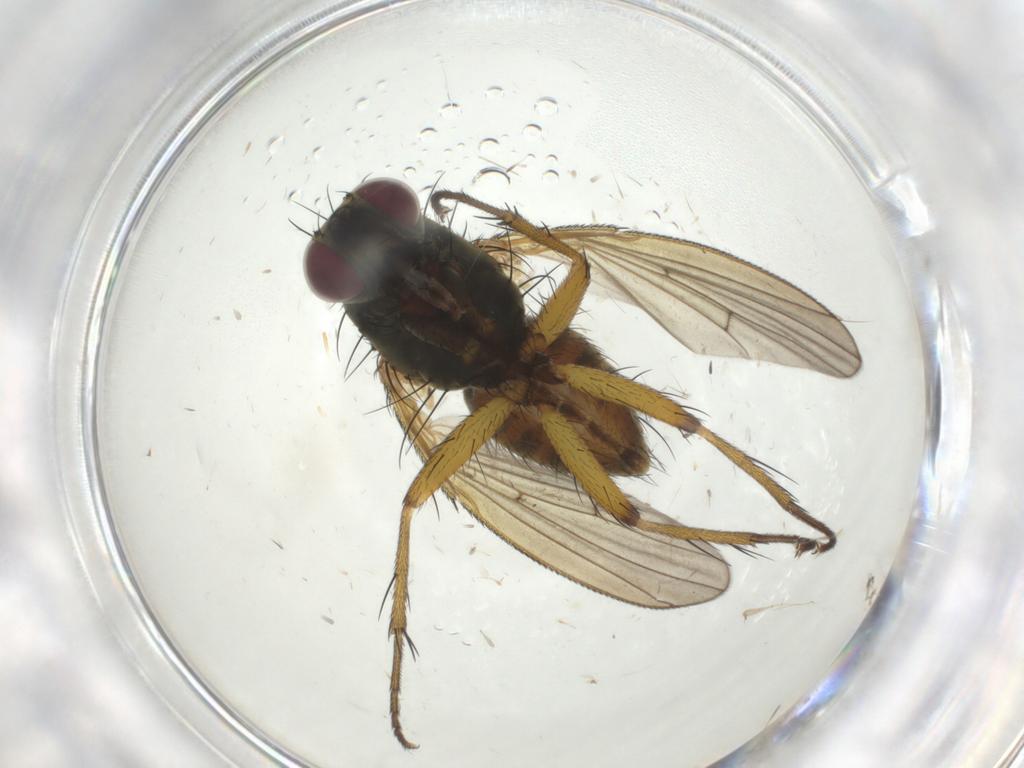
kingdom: Animalia
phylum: Arthropoda
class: Insecta
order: Diptera
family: Muscidae
